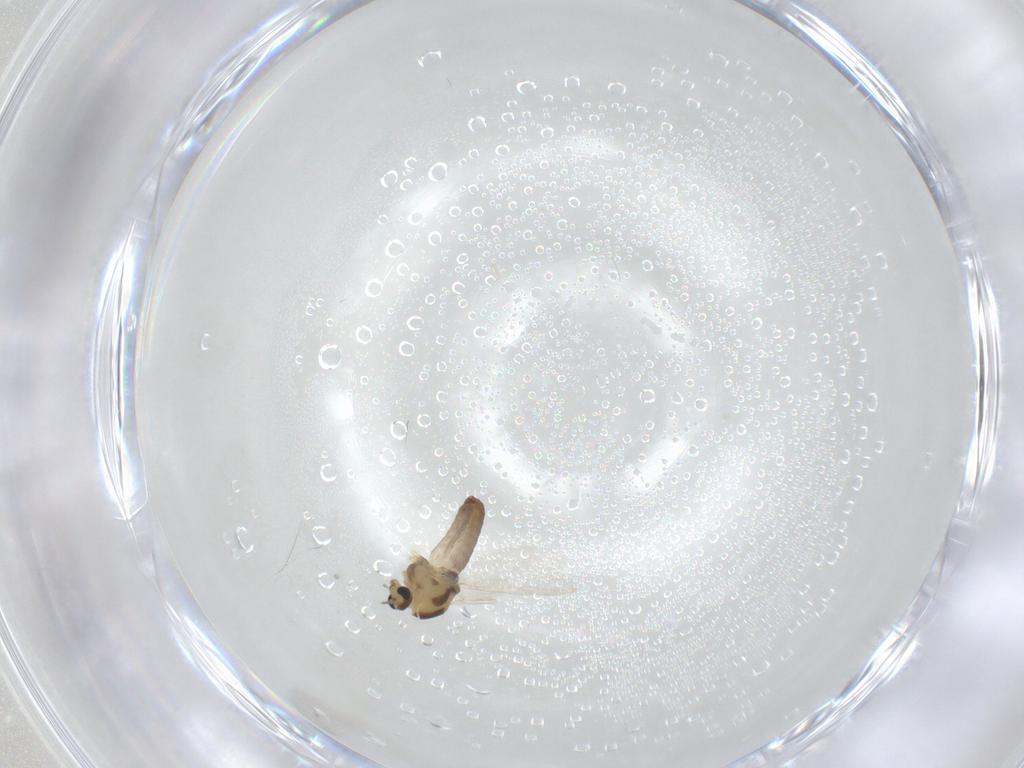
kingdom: Animalia
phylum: Arthropoda
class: Insecta
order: Diptera
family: Chironomidae
